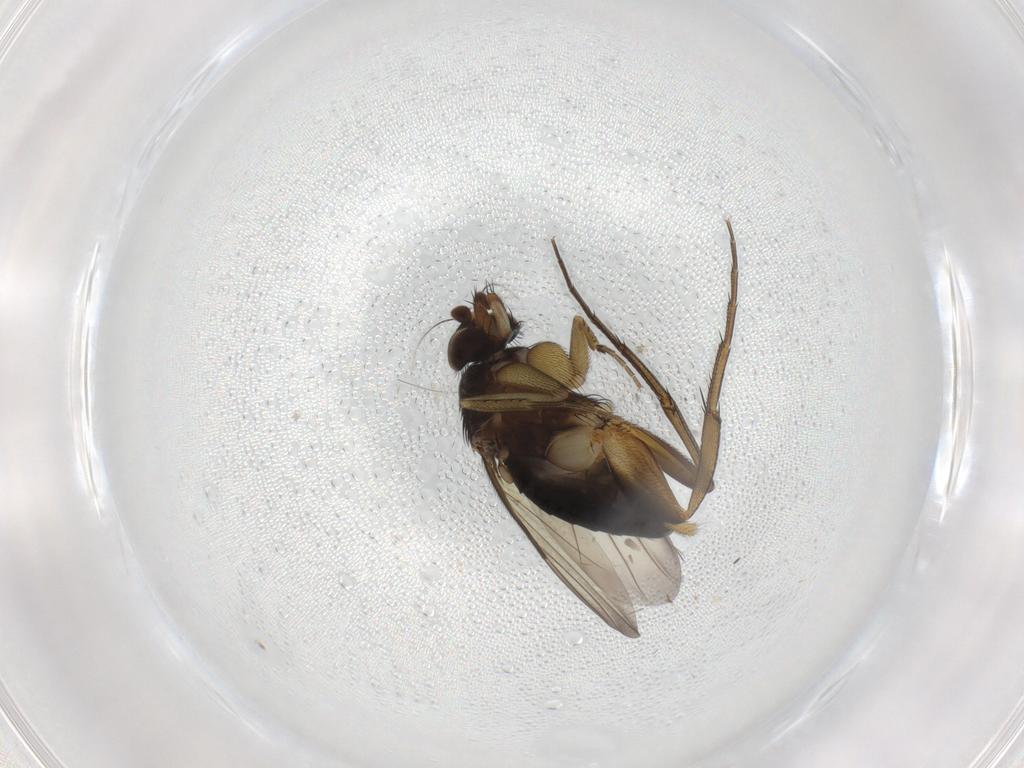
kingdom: Animalia
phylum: Arthropoda
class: Insecta
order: Diptera
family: Phoridae
